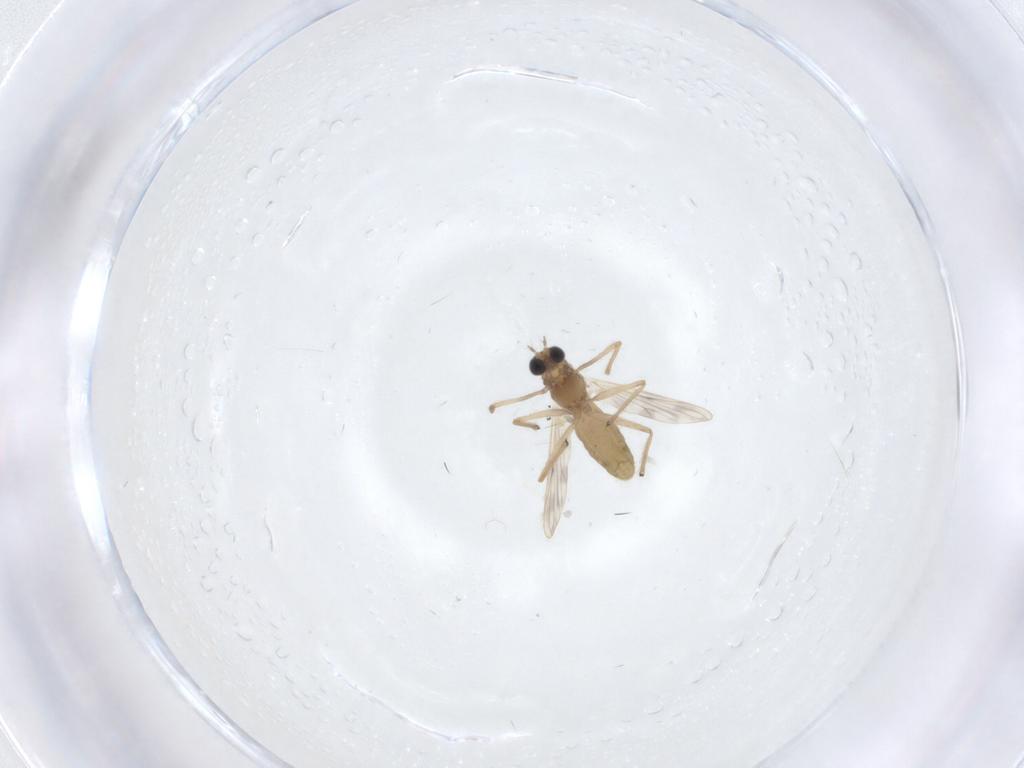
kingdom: Animalia
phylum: Arthropoda
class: Insecta
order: Diptera
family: Chironomidae
